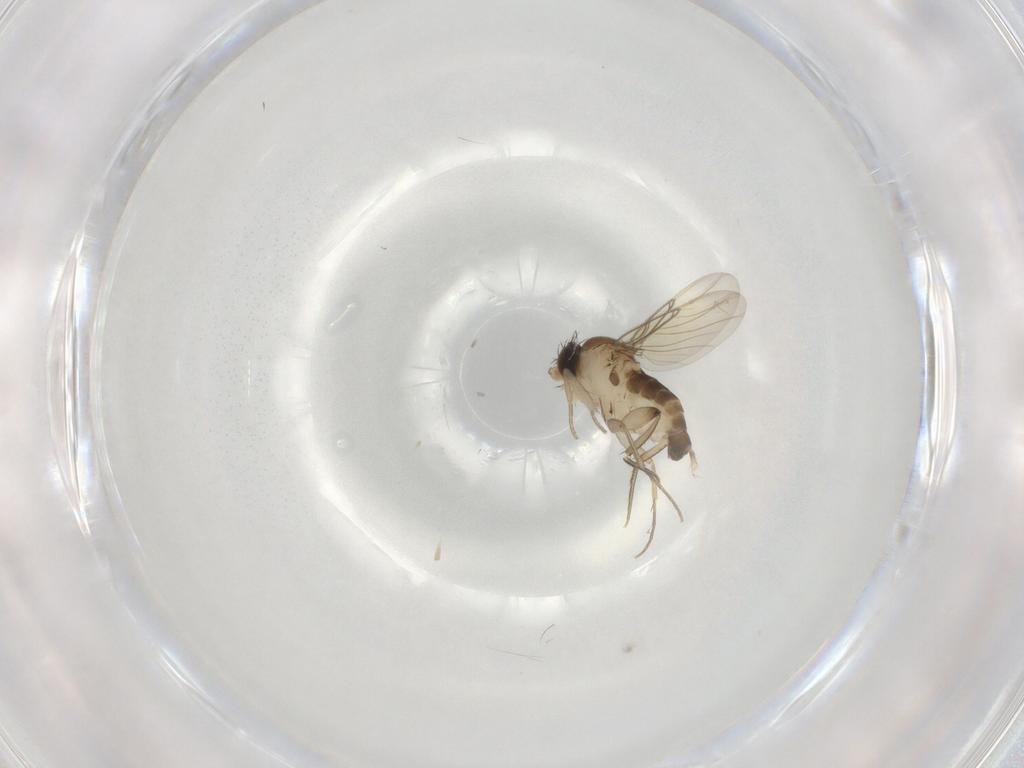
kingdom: Animalia
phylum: Arthropoda
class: Insecta
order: Diptera
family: Phoridae
